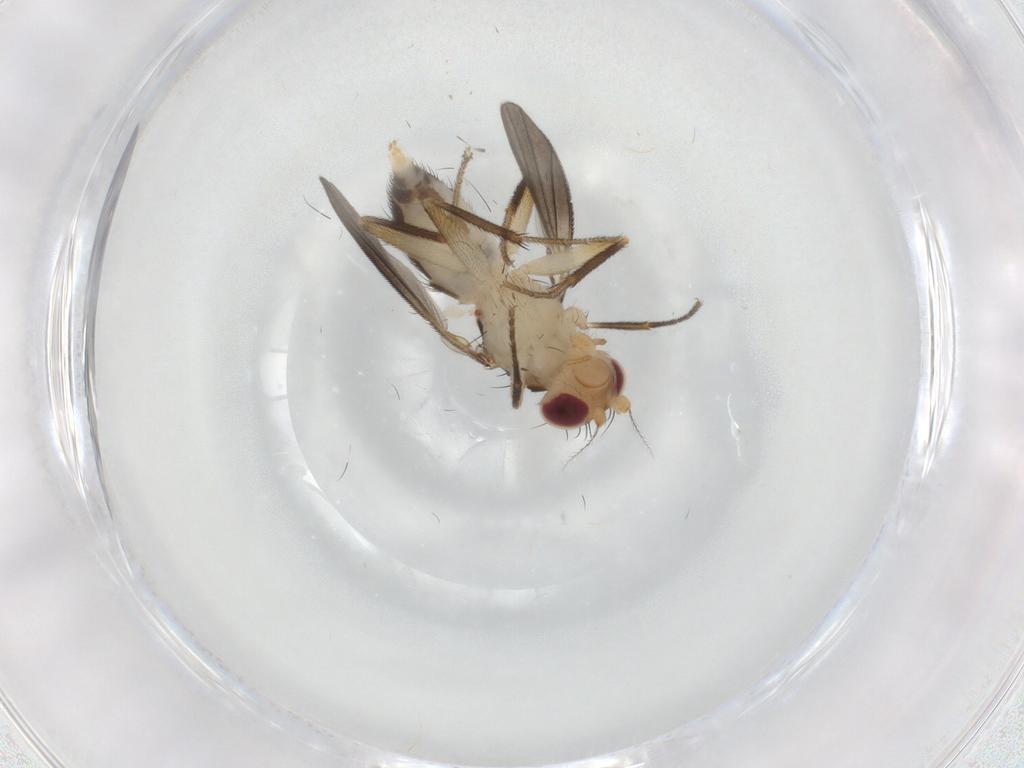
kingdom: Animalia
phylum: Arthropoda
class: Insecta
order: Diptera
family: Clusiidae
